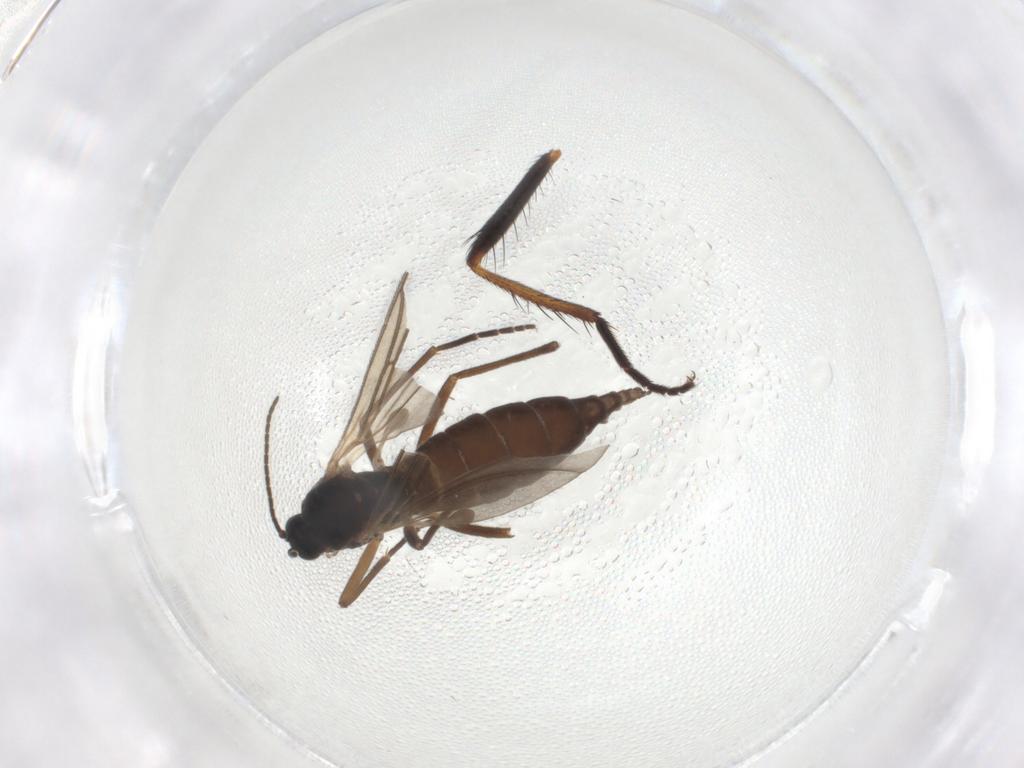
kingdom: Animalia
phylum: Arthropoda
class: Insecta
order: Diptera
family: Sciaridae
